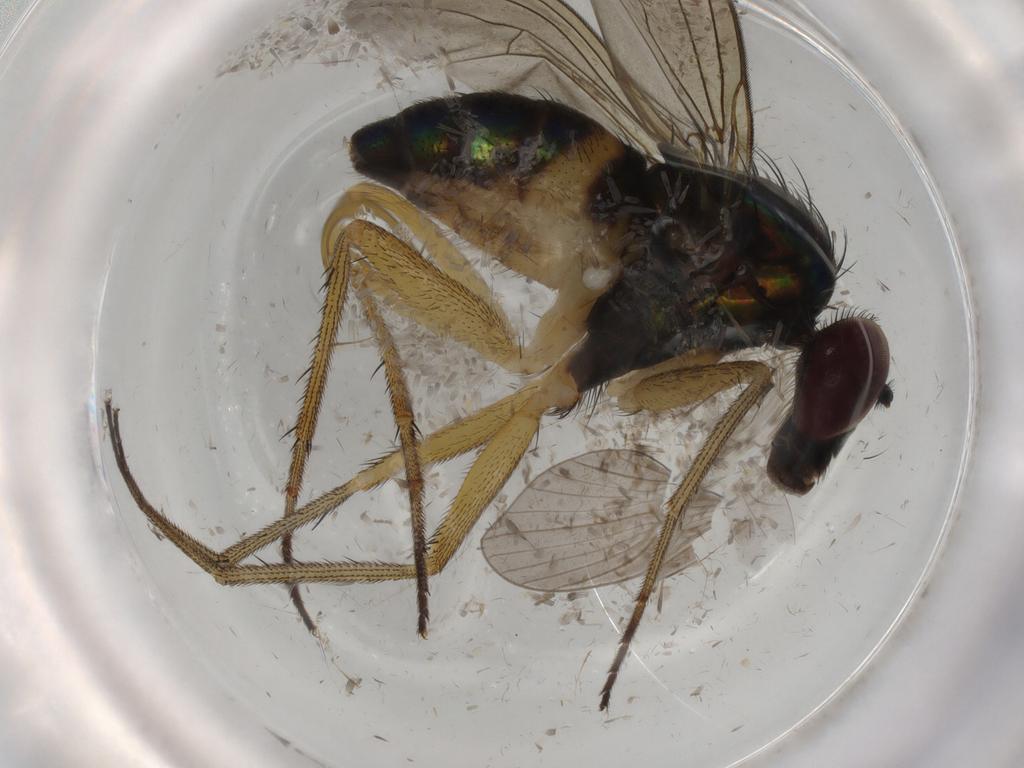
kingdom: Animalia
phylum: Arthropoda
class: Insecta
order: Diptera
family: Dolichopodidae
